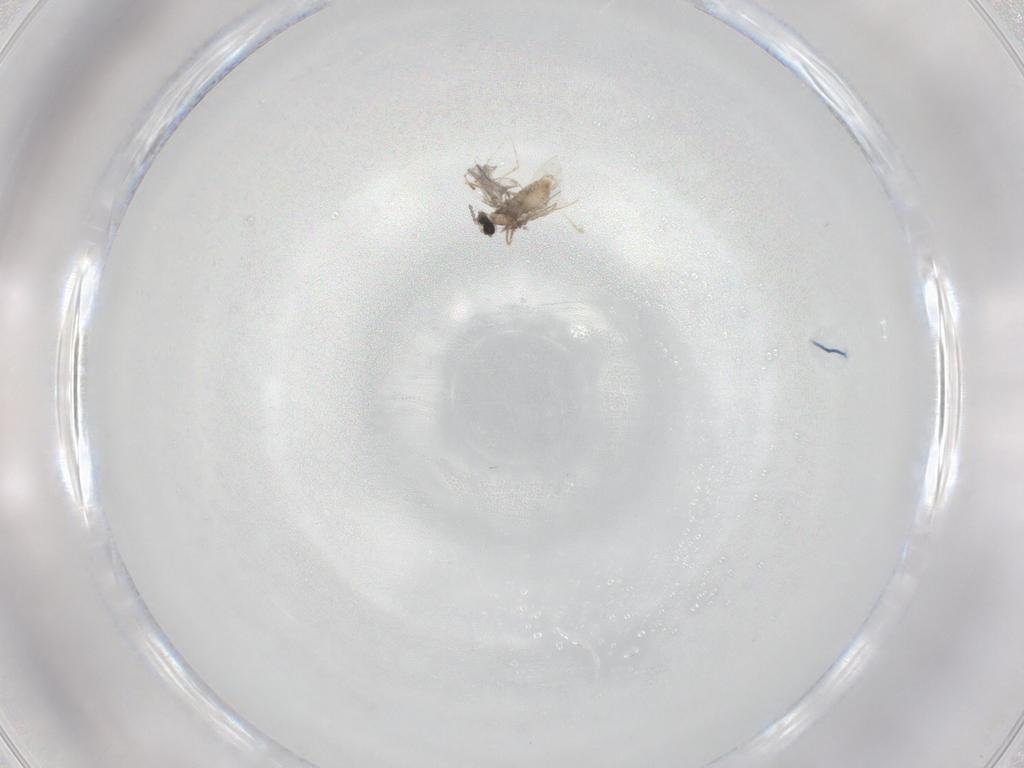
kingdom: Animalia
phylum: Arthropoda
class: Insecta
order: Diptera
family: Cecidomyiidae
